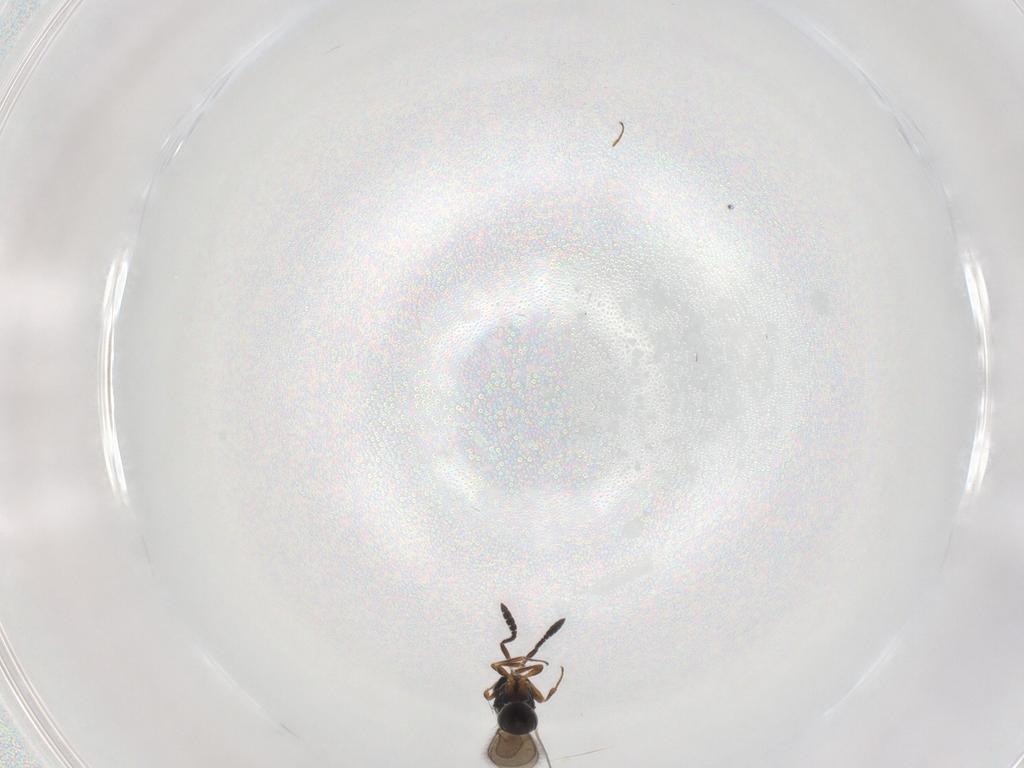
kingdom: Animalia
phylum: Arthropoda
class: Insecta
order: Hymenoptera
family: Scelionidae
